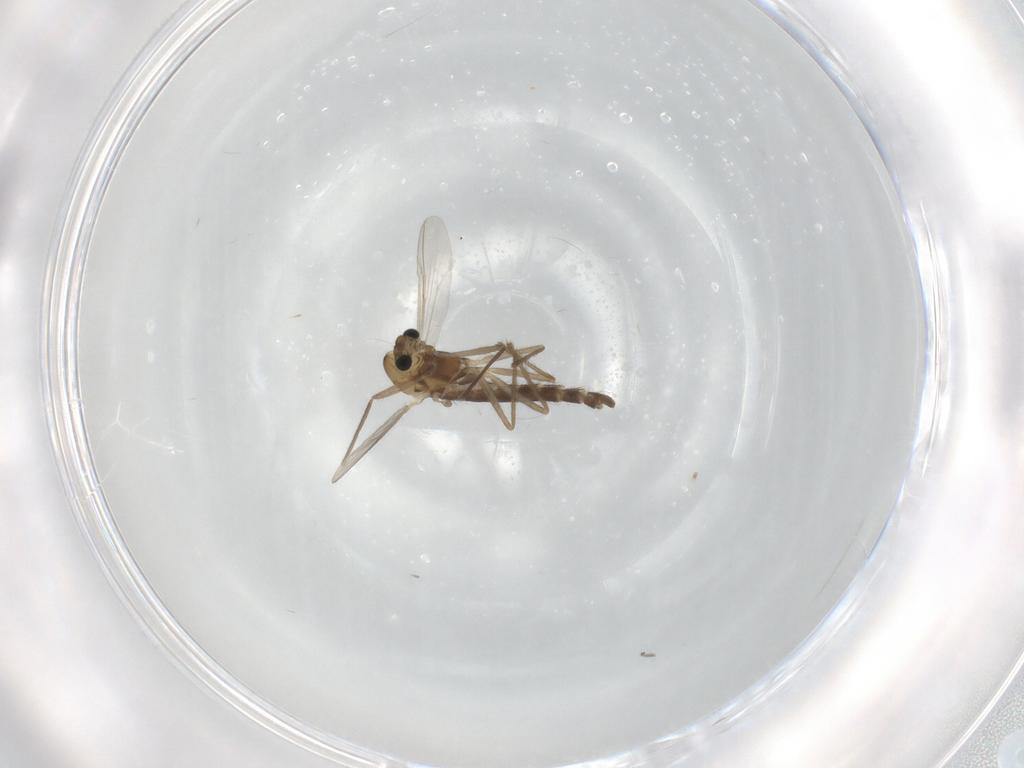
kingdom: Animalia
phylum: Arthropoda
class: Insecta
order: Diptera
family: Chironomidae
